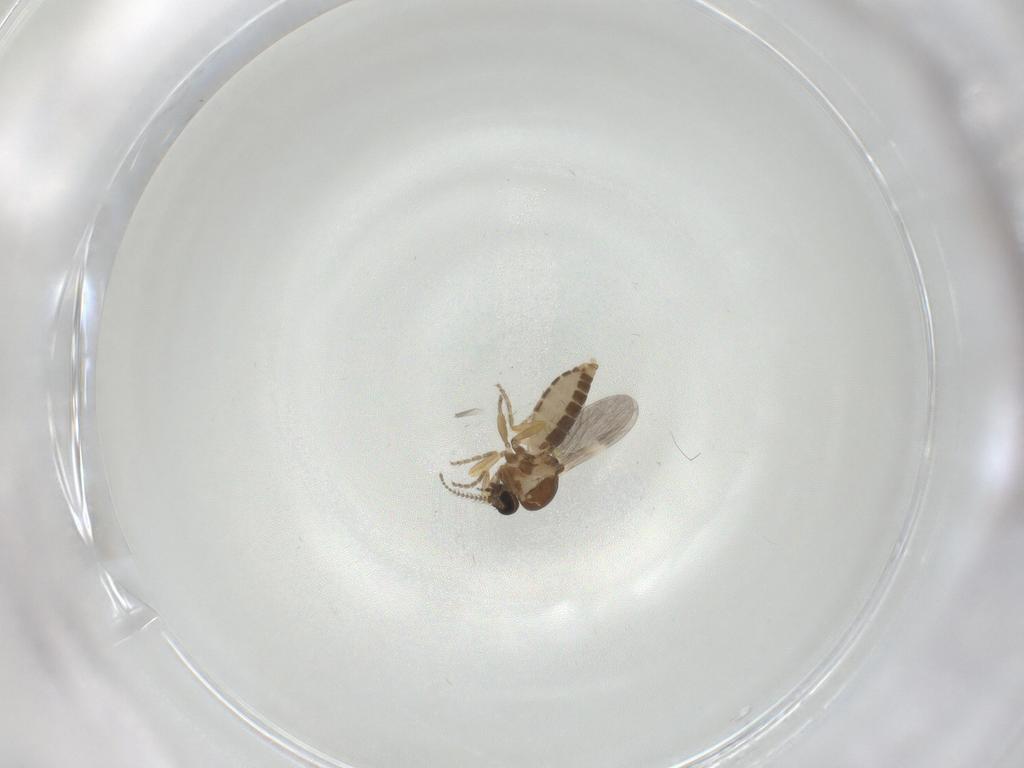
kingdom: Animalia
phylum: Arthropoda
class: Insecta
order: Diptera
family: Ceratopogonidae
